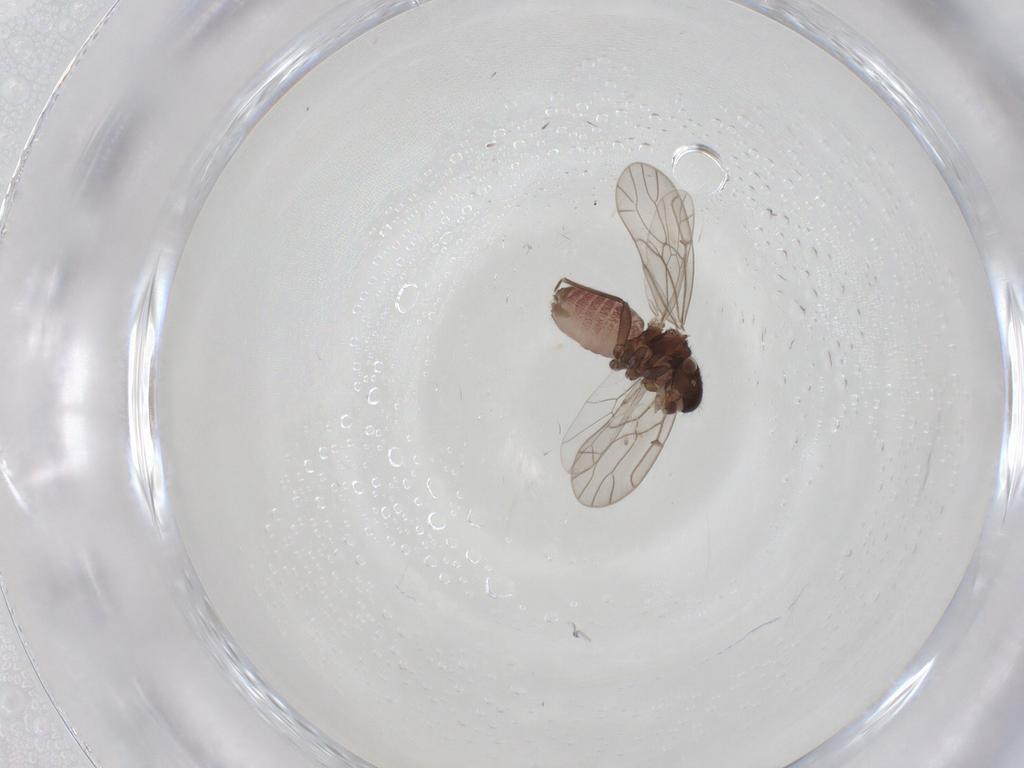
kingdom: Animalia
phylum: Arthropoda
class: Insecta
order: Psocodea
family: Ectopsocidae
